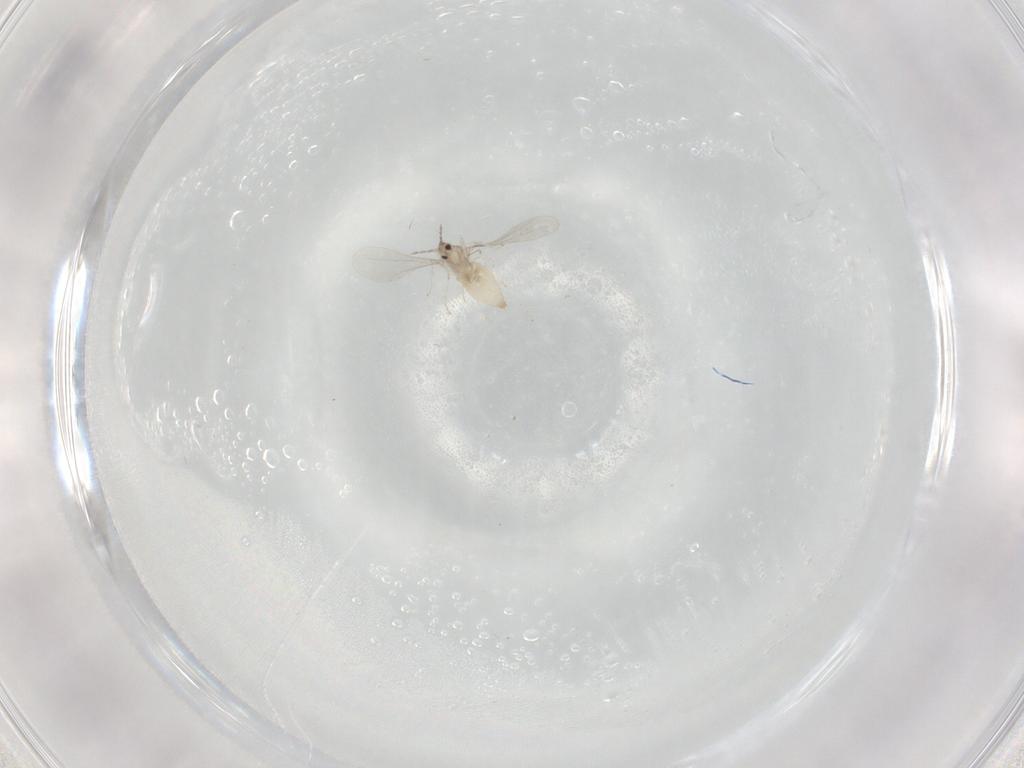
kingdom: Animalia
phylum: Arthropoda
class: Insecta
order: Diptera
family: Cecidomyiidae
